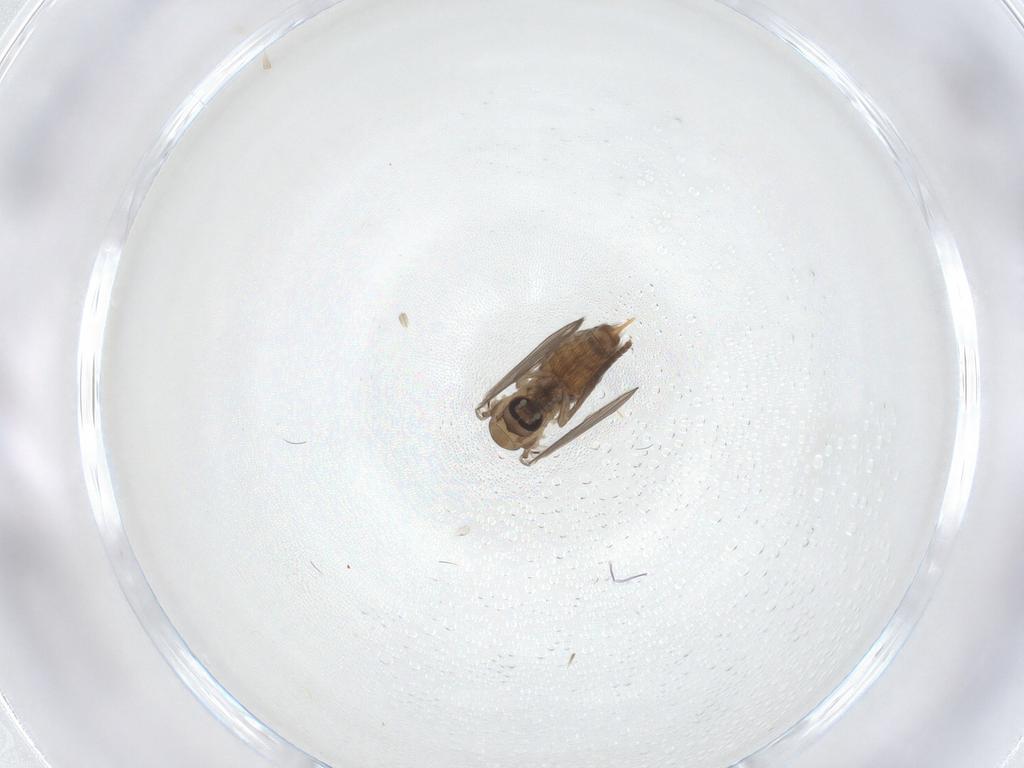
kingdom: Animalia
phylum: Arthropoda
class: Insecta
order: Diptera
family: Cecidomyiidae
